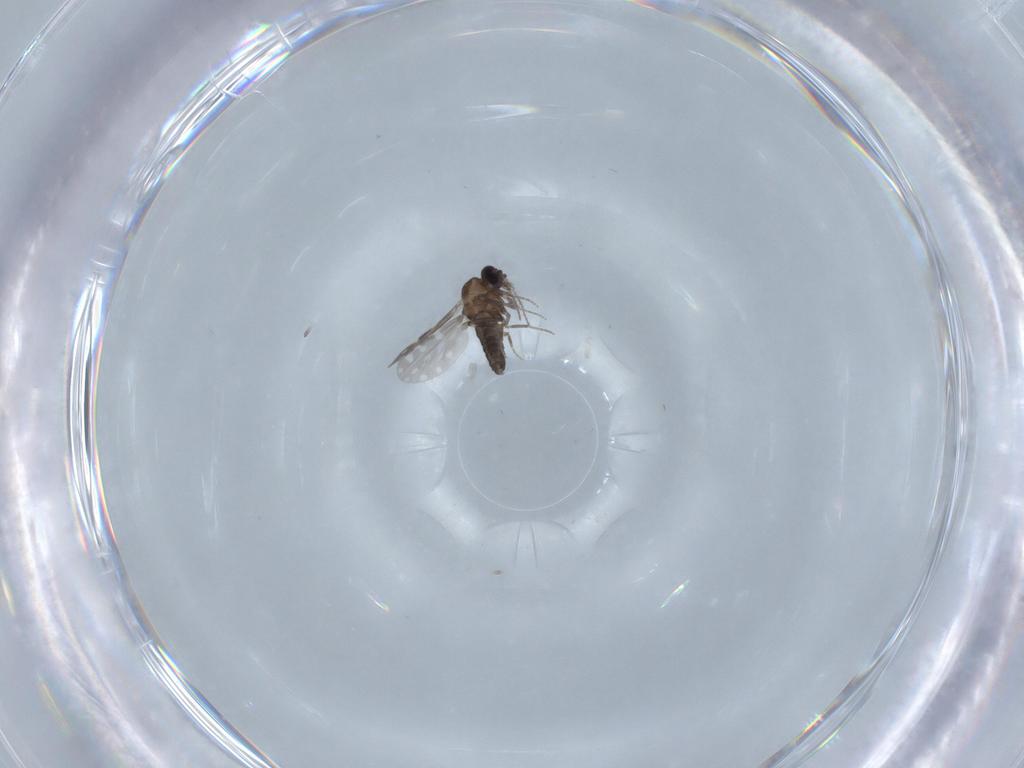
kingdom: Animalia
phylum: Arthropoda
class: Insecta
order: Diptera
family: Ceratopogonidae
